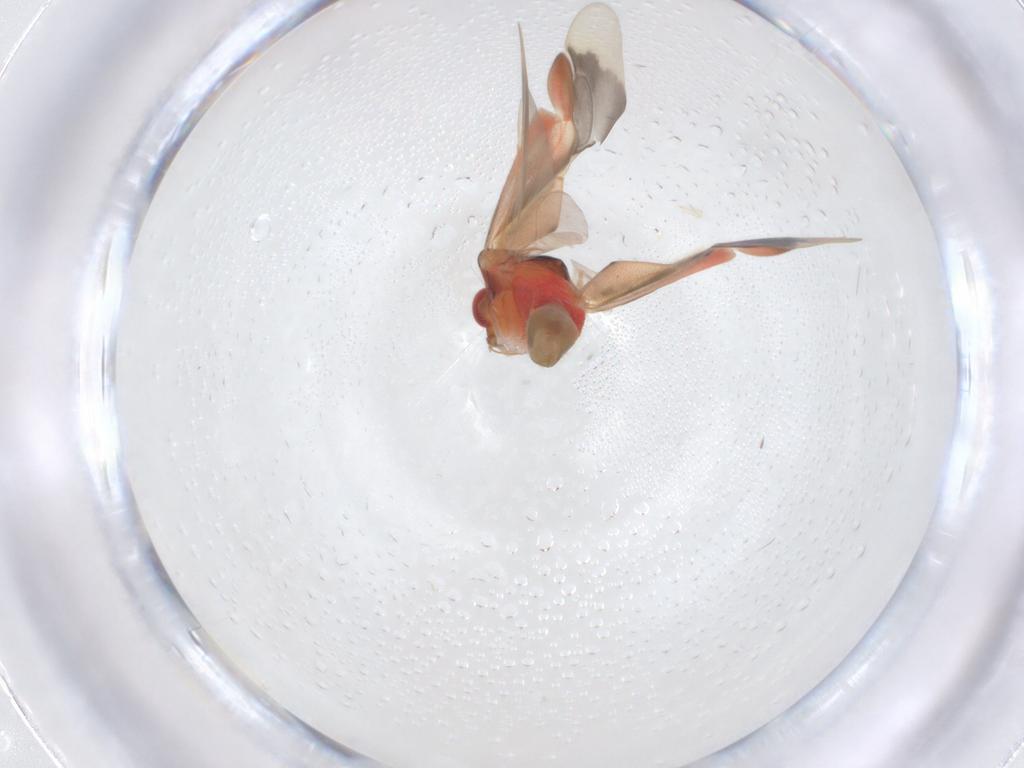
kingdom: Animalia
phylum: Arthropoda
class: Insecta
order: Hemiptera
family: Miridae
